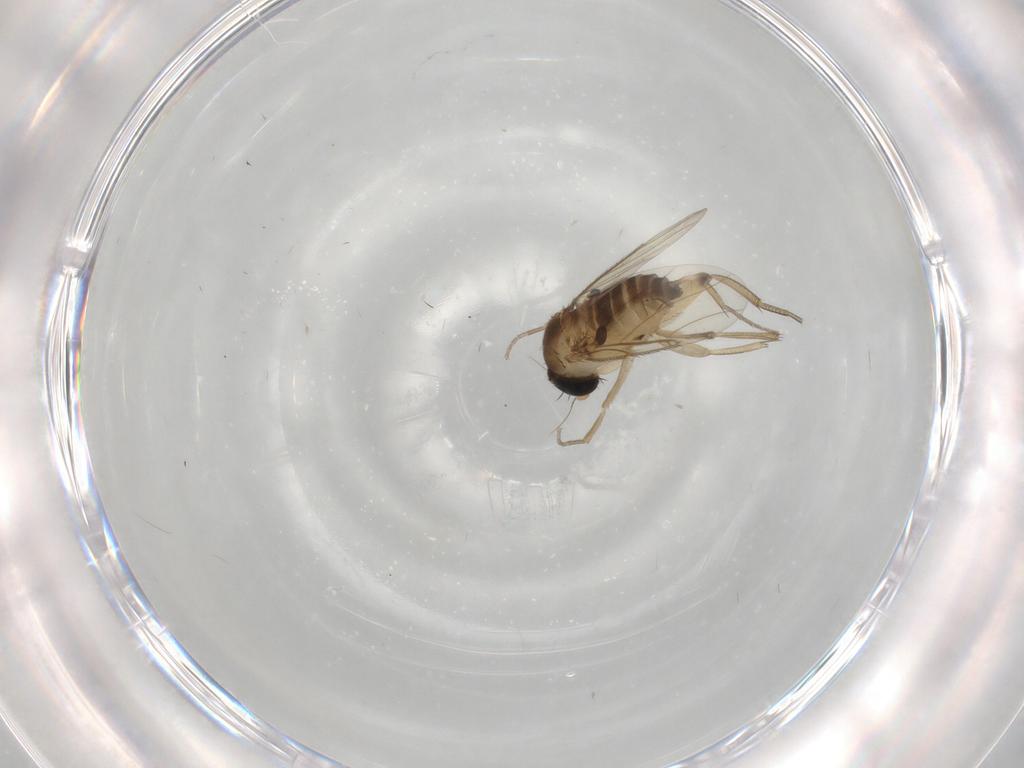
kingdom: Animalia
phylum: Arthropoda
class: Insecta
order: Diptera
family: Phoridae
